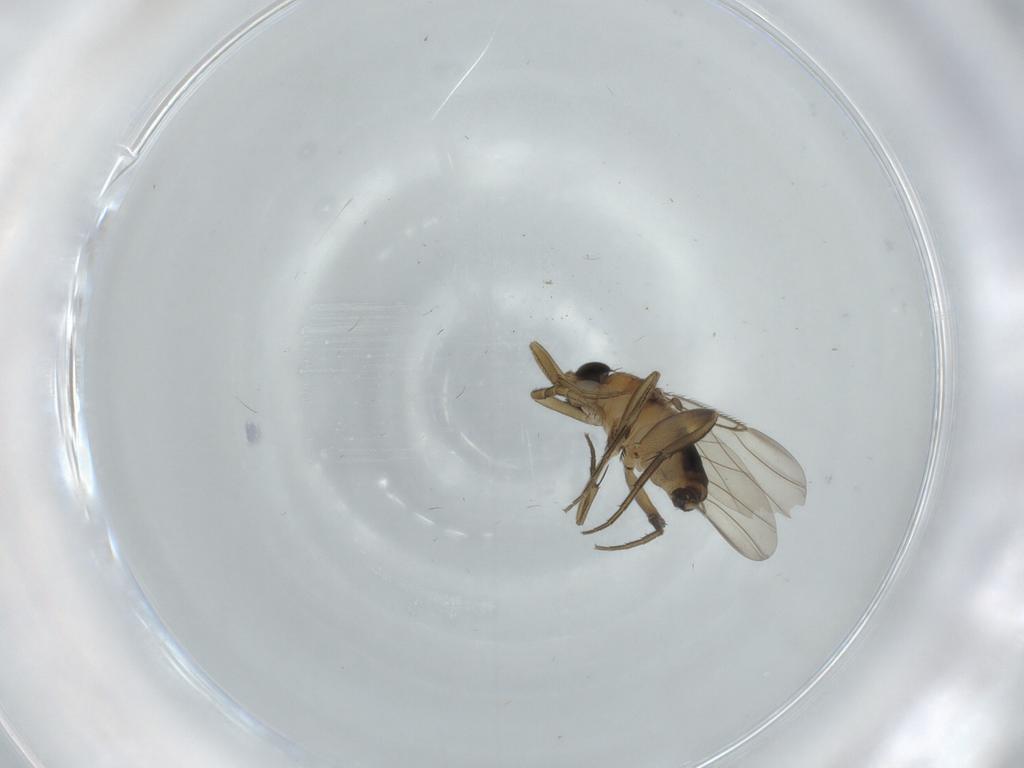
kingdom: Animalia
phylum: Arthropoda
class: Insecta
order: Diptera
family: Phoridae
